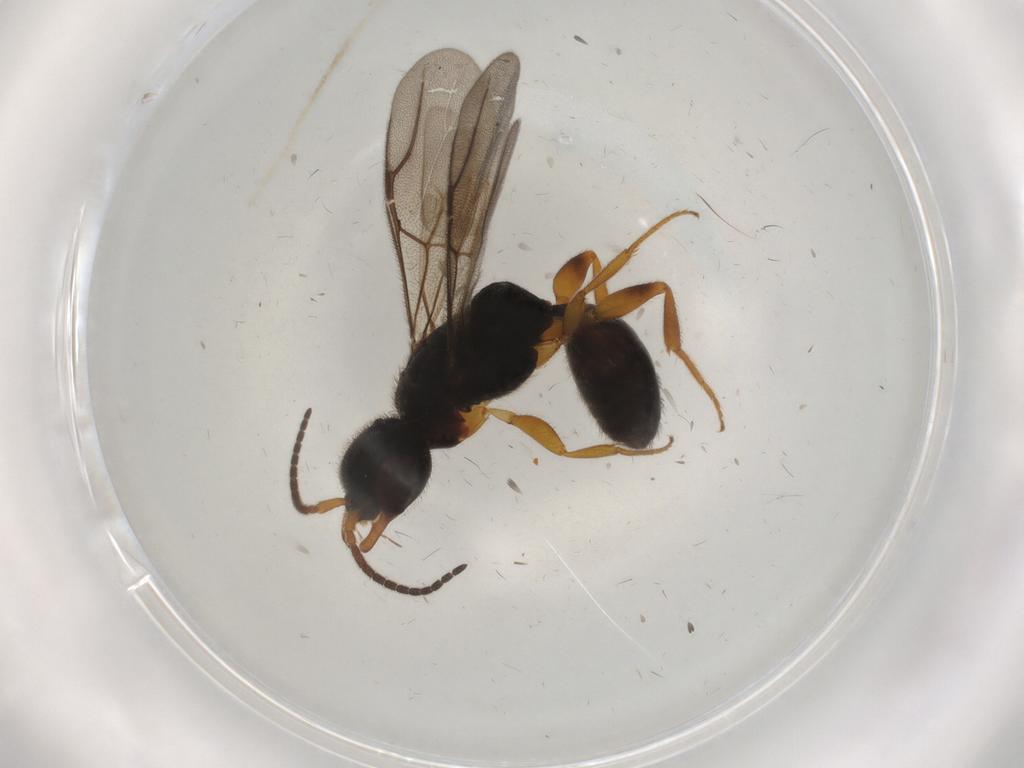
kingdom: Animalia
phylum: Arthropoda
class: Insecta
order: Hymenoptera
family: Bethylidae
